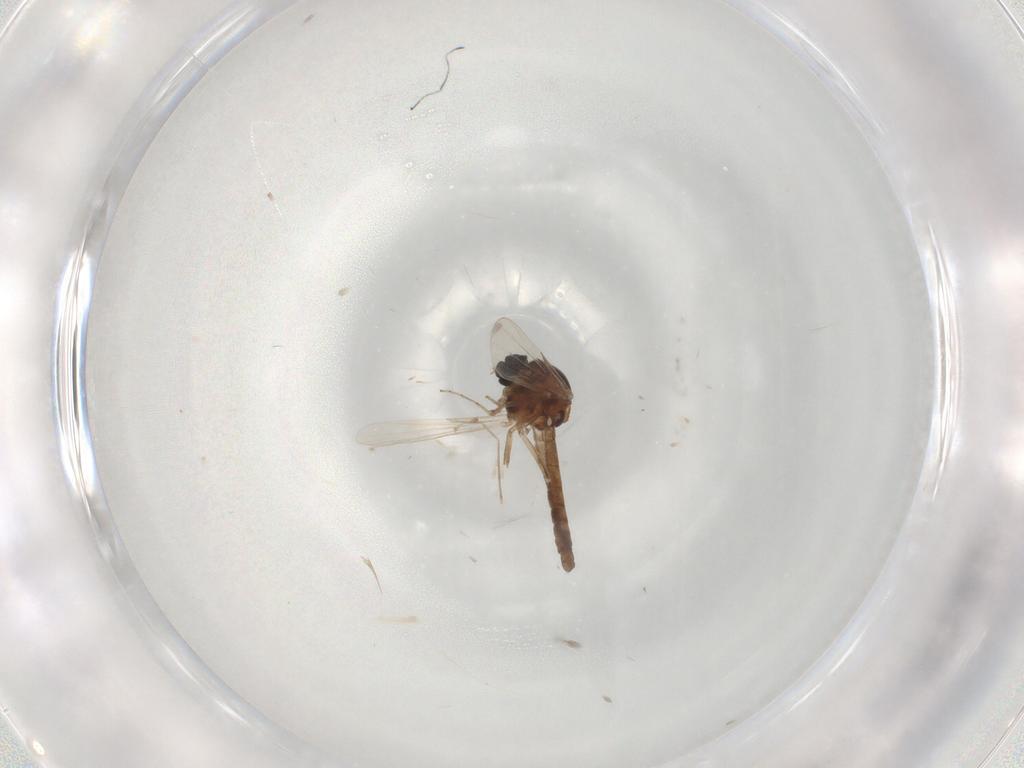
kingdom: Animalia
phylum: Arthropoda
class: Insecta
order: Diptera
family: Ceratopogonidae
